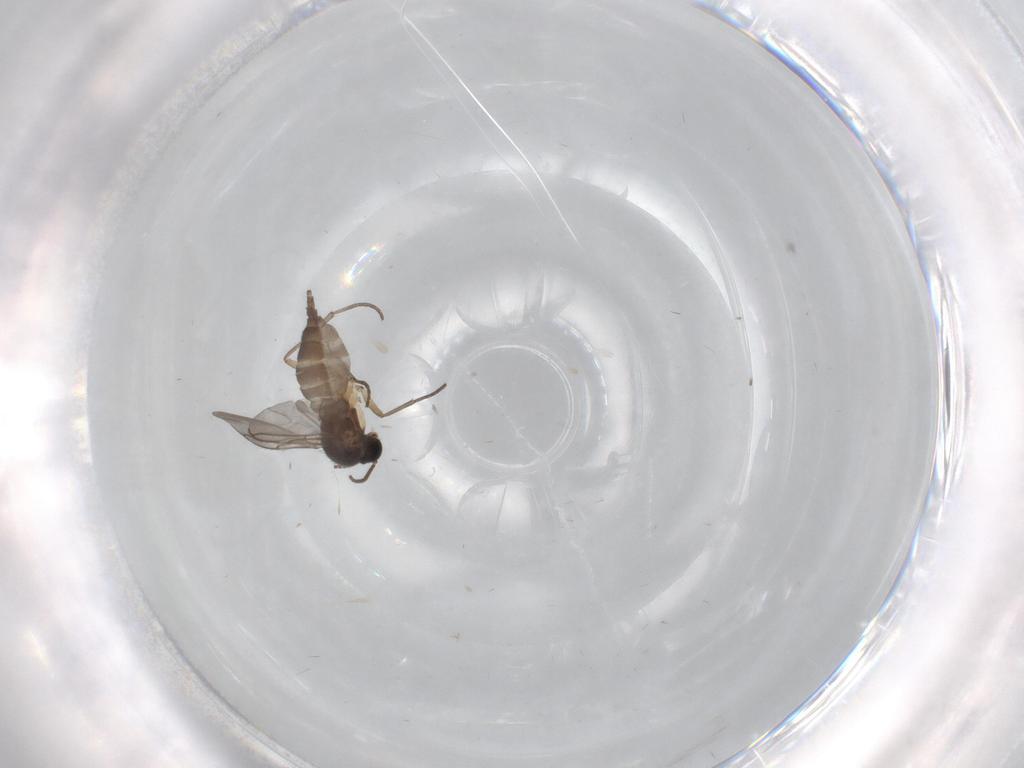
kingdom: Animalia
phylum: Arthropoda
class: Insecta
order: Diptera
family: Sciaridae
